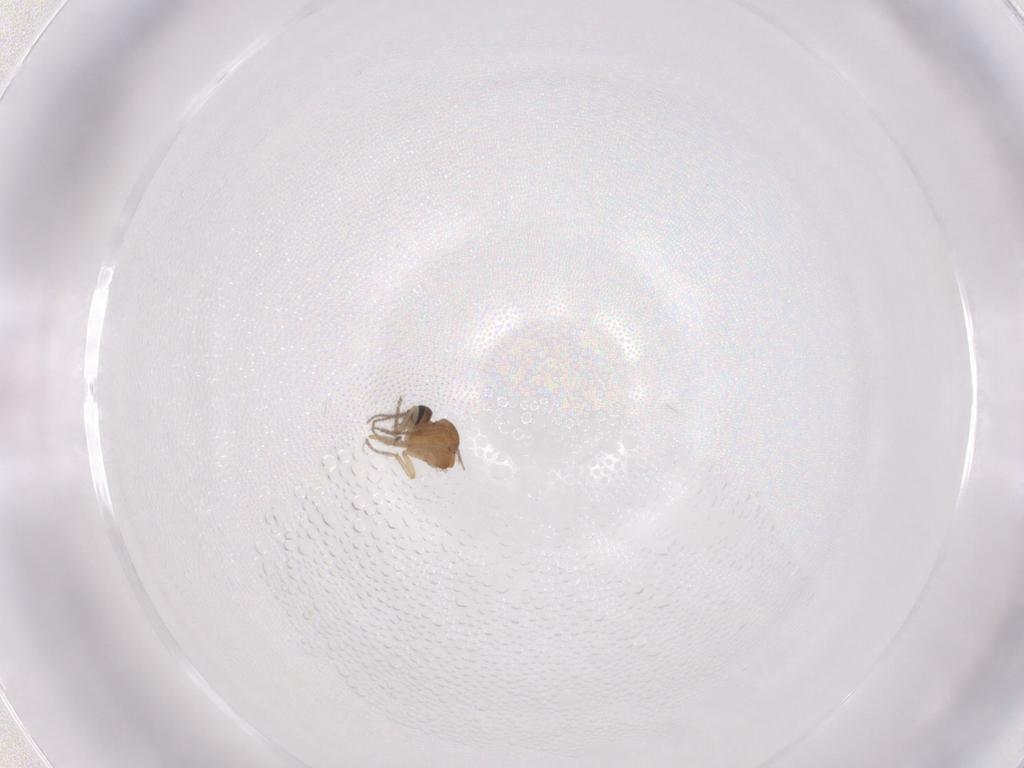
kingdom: Animalia
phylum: Arthropoda
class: Insecta
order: Diptera
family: Ceratopogonidae
